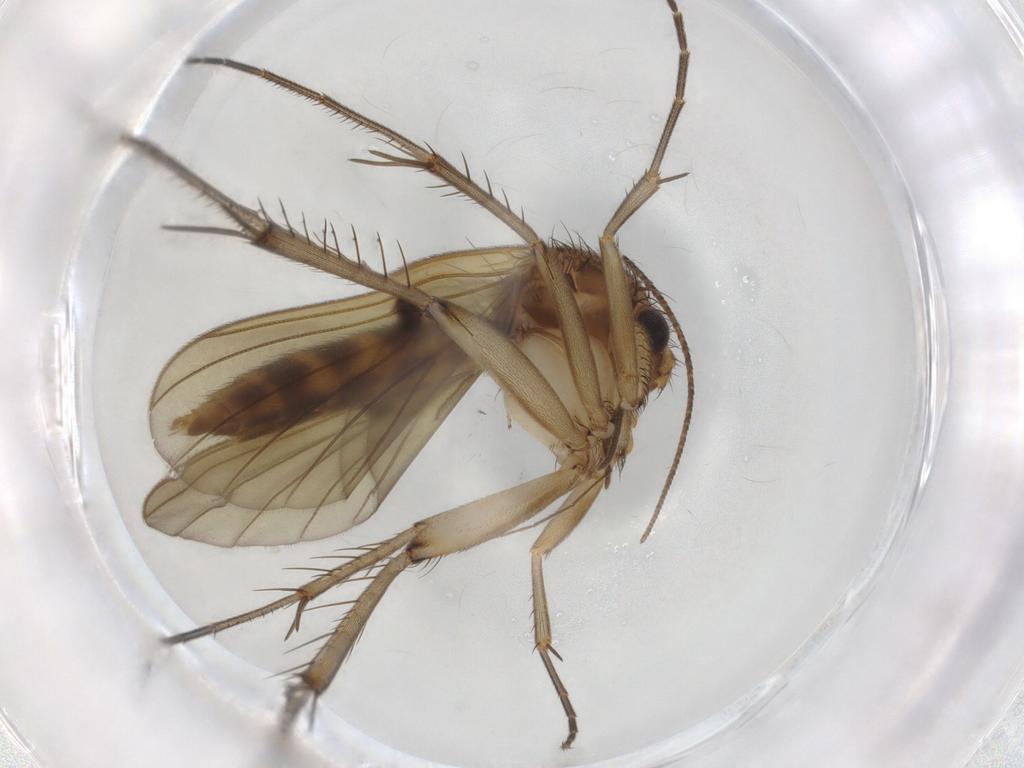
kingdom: Animalia
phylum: Arthropoda
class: Insecta
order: Diptera
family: Mycetophilidae
